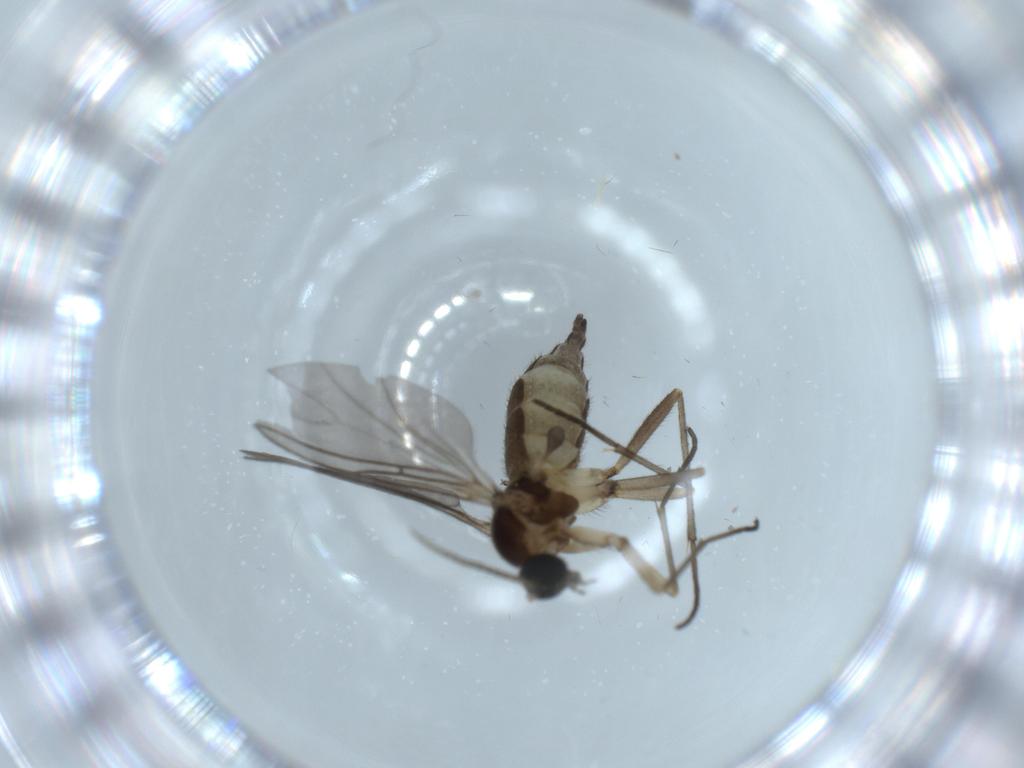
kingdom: Animalia
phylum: Arthropoda
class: Insecta
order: Diptera
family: Sciaridae
